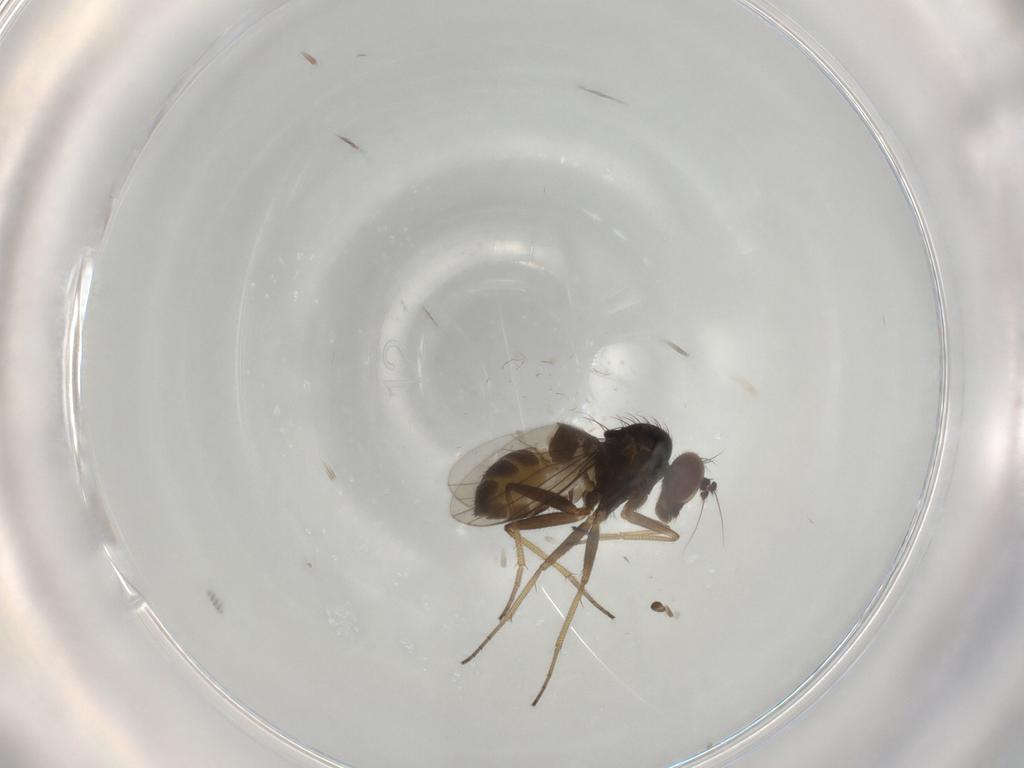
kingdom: Animalia
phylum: Arthropoda
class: Insecta
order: Diptera
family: Dolichopodidae
